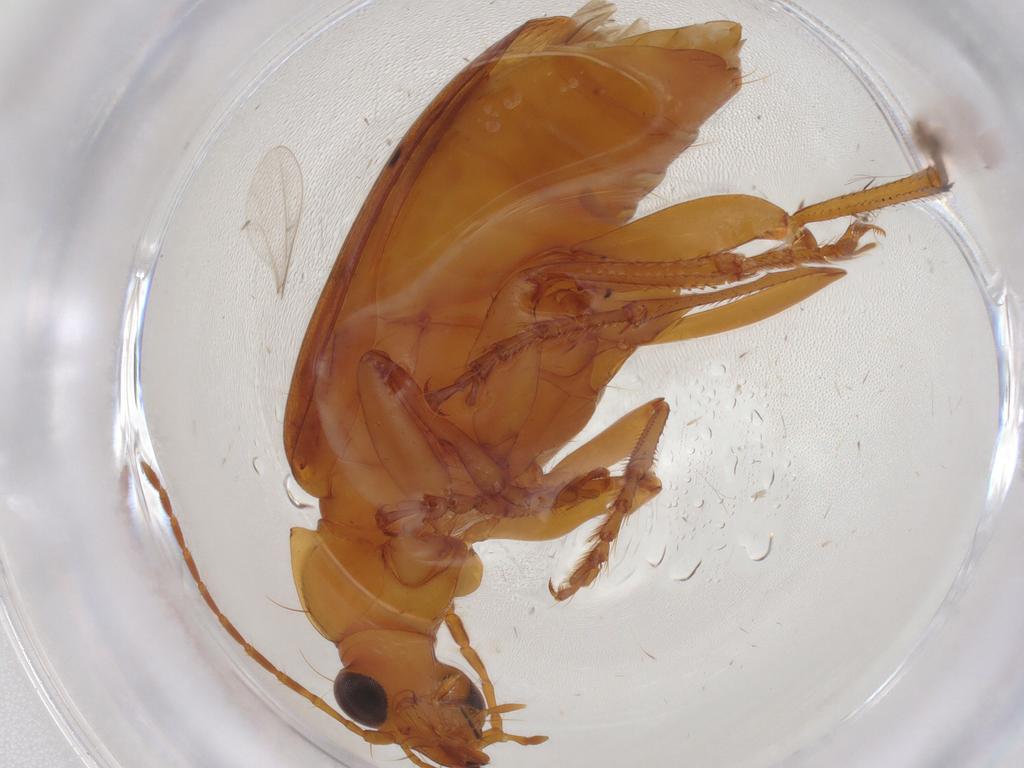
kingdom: Animalia
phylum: Arthropoda
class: Insecta
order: Coleoptera
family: Carabidae
